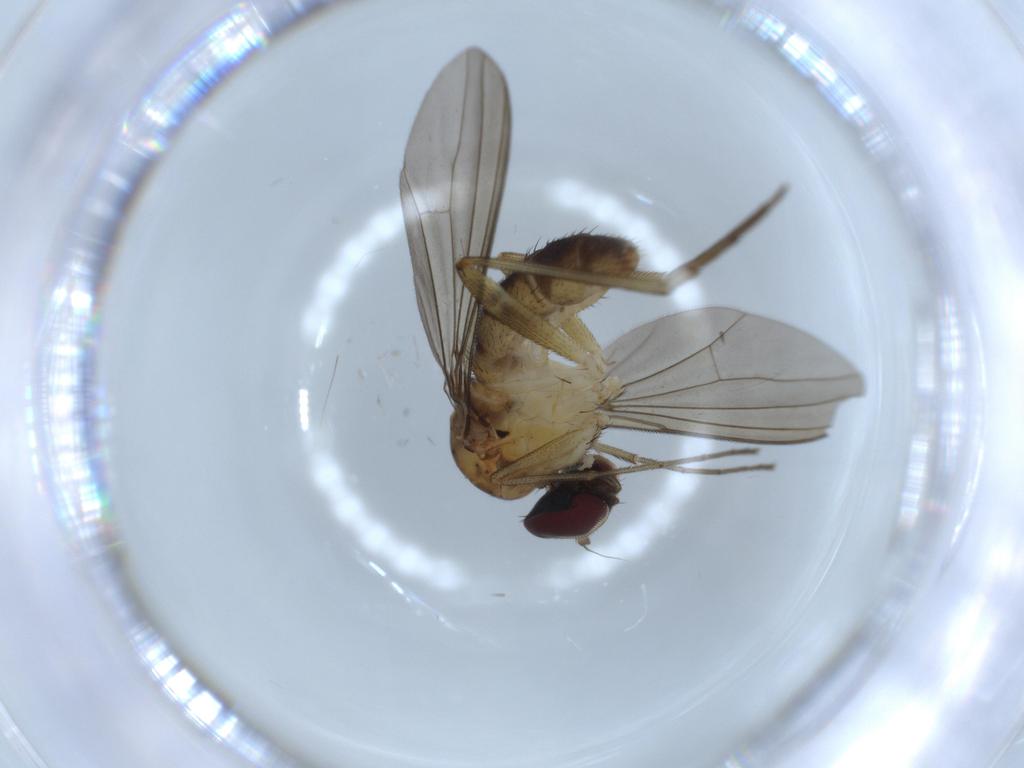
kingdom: Animalia
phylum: Arthropoda
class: Insecta
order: Diptera
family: Dolichopodidae
